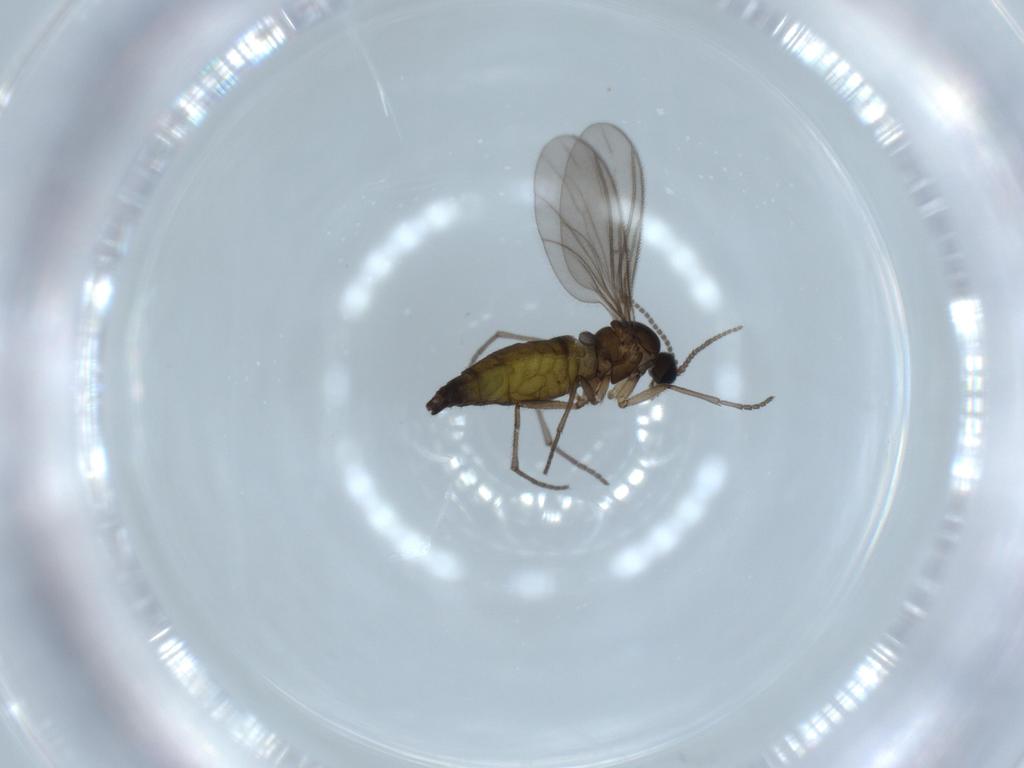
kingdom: Animalia
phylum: Arthropoda
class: Insecta
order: Diptera
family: Sciaridae
